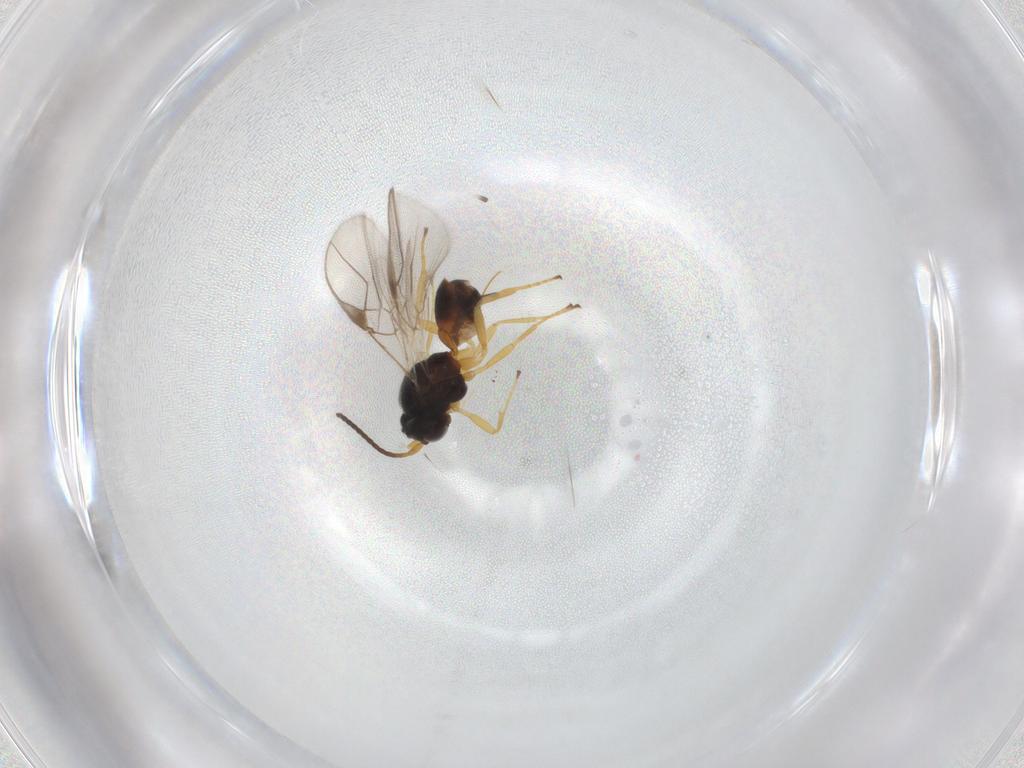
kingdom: Animalia
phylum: Arthropoda
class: Insecta
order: Hymenoptera
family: Braconidae
